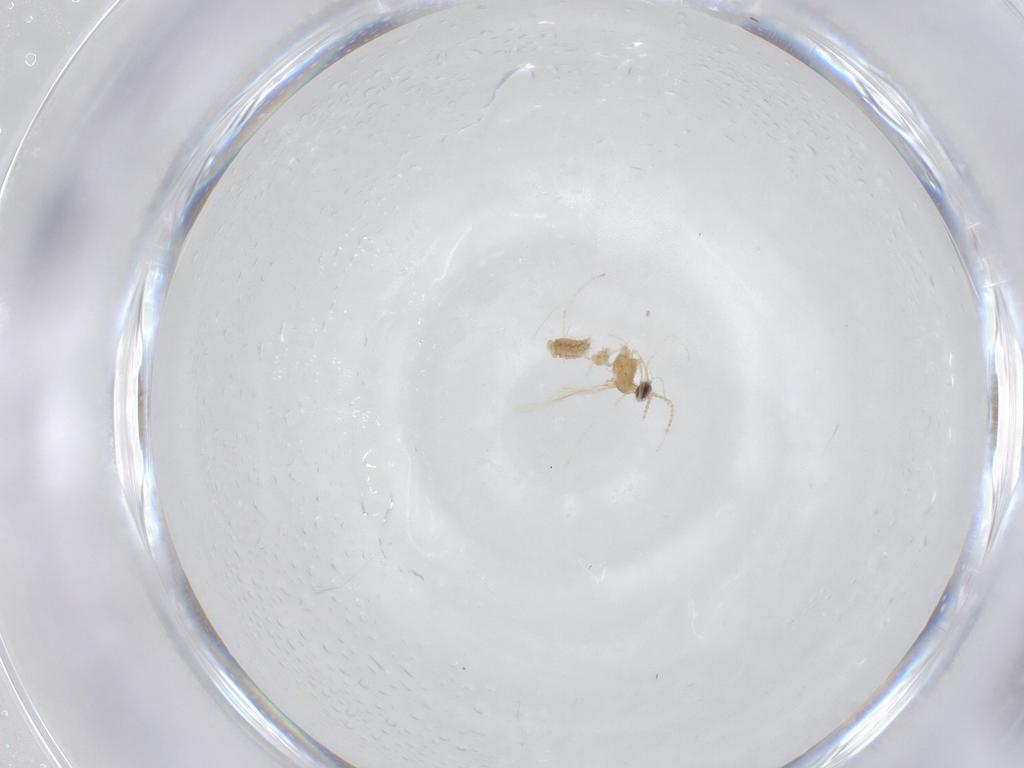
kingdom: Animalia
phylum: Arthropoda
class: Insecta
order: Diptera
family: Cecidomyiidae
